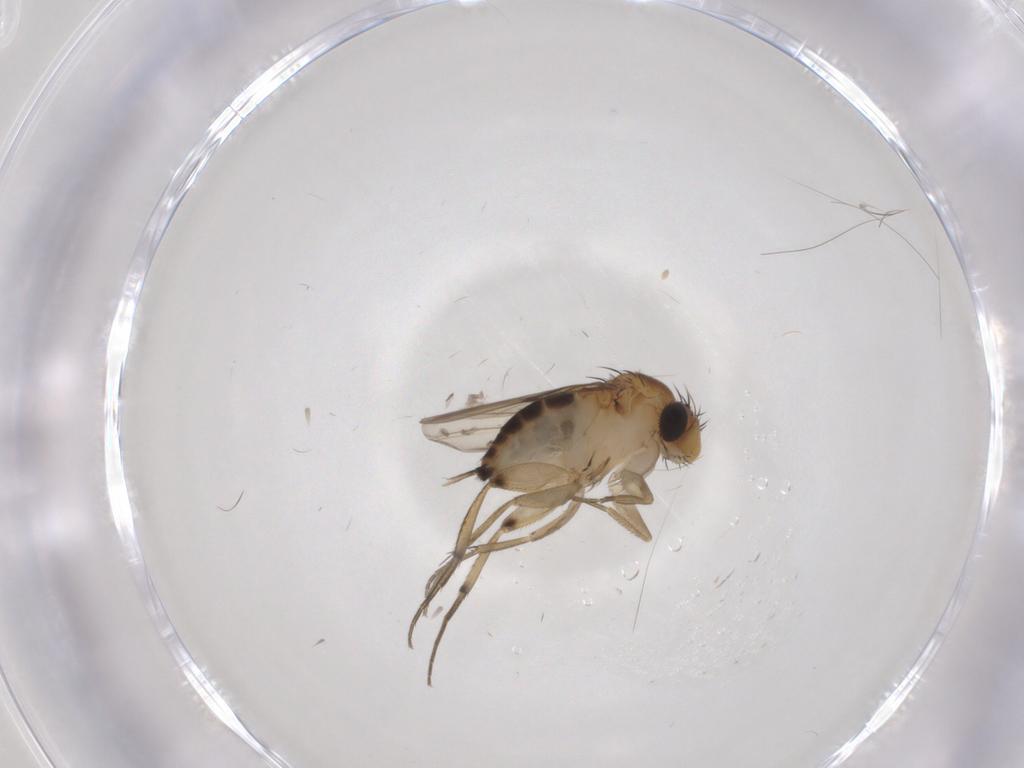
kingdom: Animalia
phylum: Arthropoda
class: Insecta
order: Diptera
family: Phoridae
